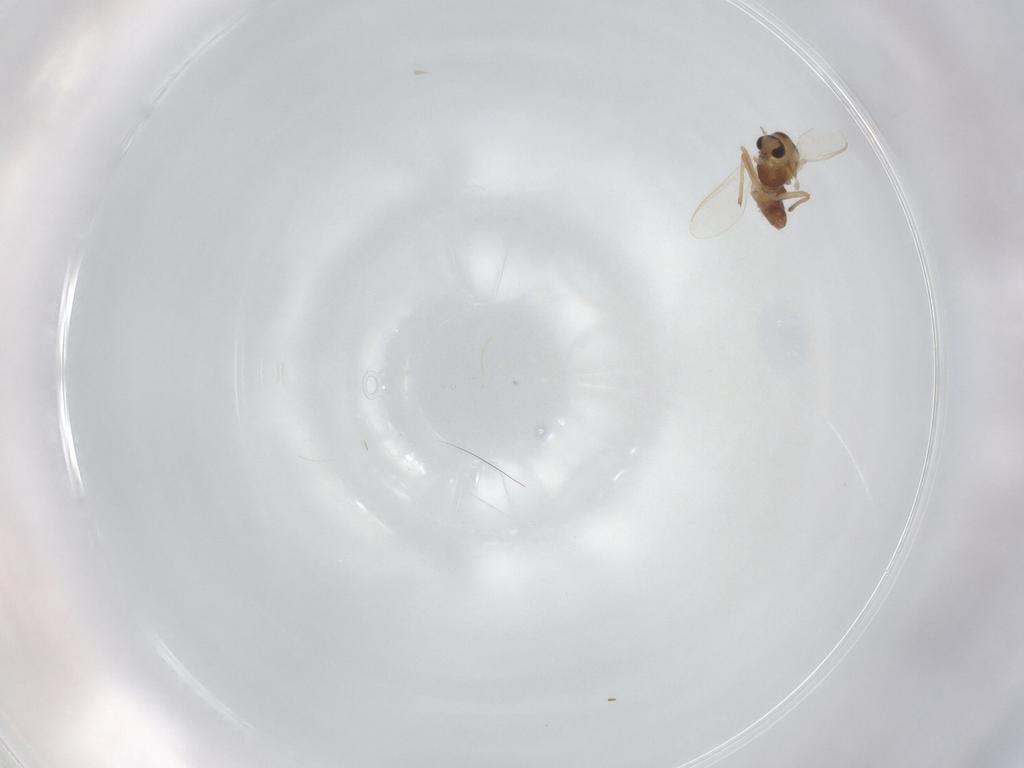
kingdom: Animalia
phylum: Arthropoda
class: Insecta
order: Diptera
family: Chironomidae
